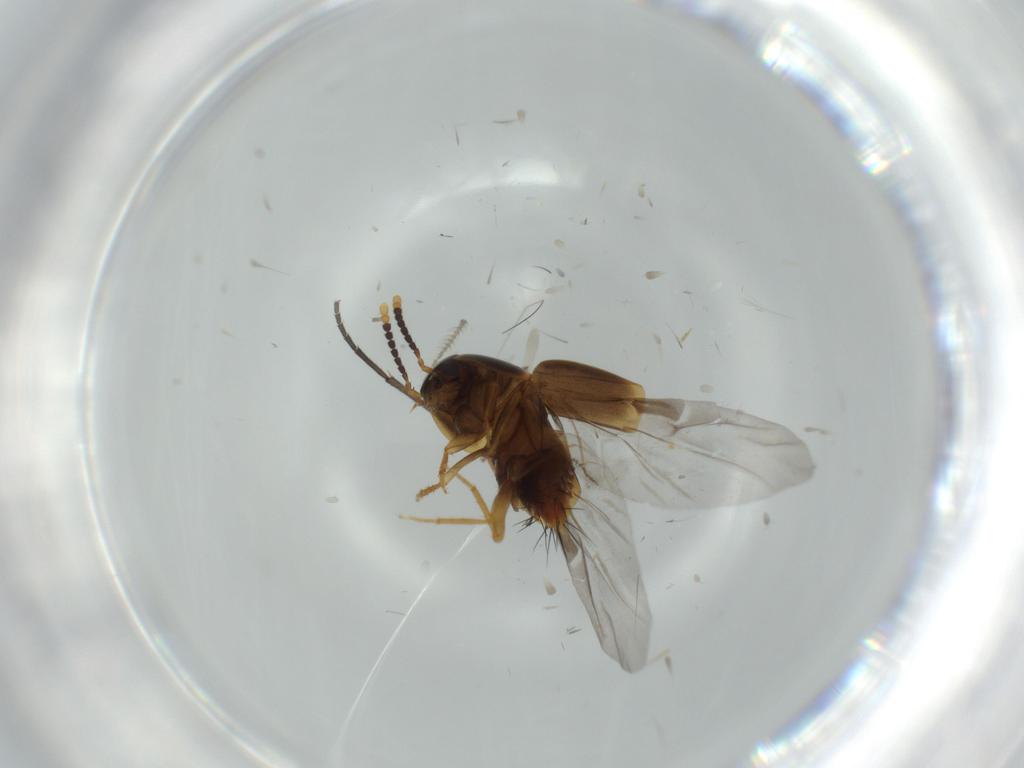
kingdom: Animalia
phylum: Arthropoda
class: Insecta
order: Coleoptera
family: Staphylinidae
